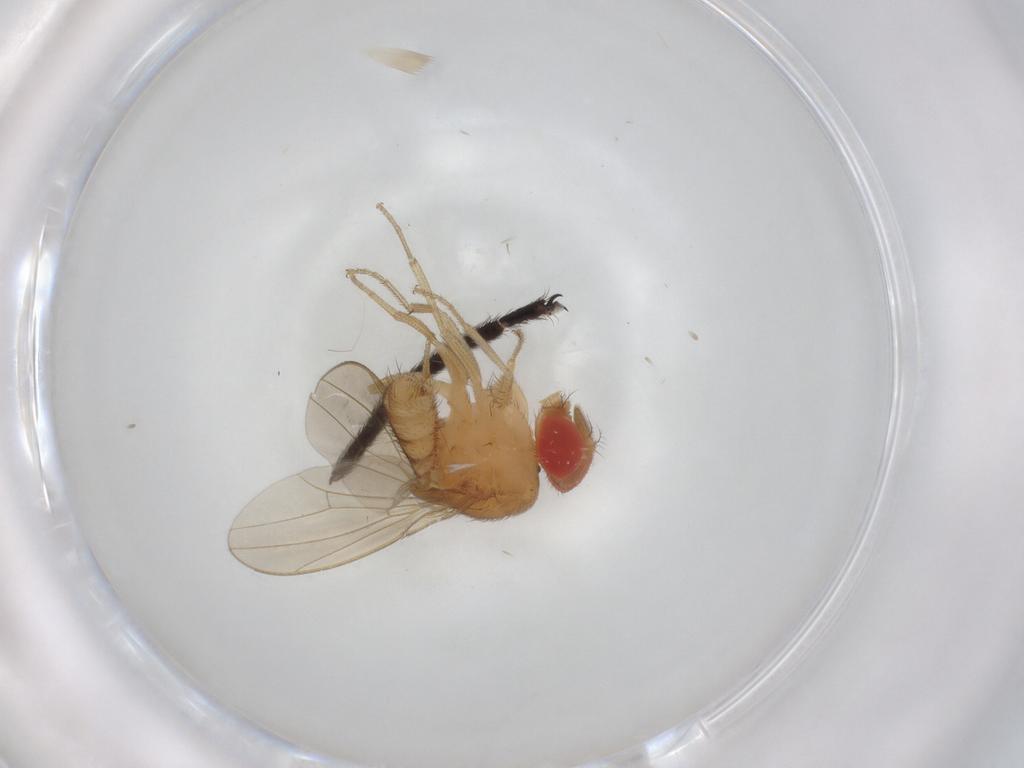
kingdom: Animalia
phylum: Arthropoda
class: Insecta
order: Diptera
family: Drosophilidae
